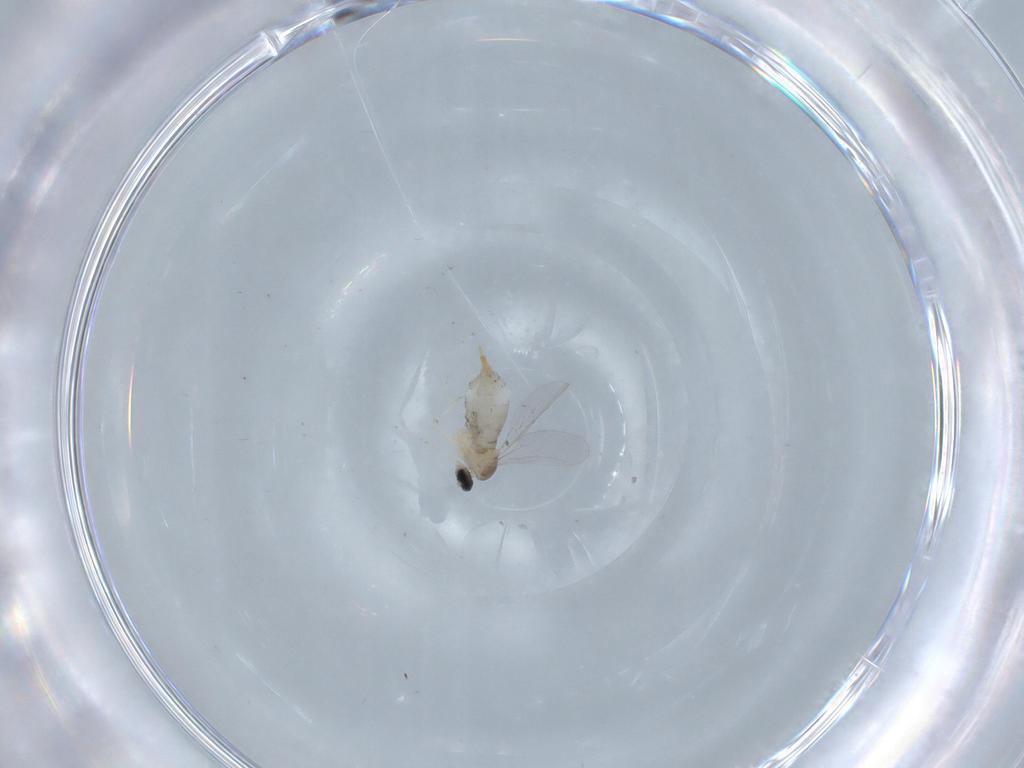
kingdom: Animalia
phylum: Arthropoda
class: Insecta
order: Diptera
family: Cecidomyiidae
